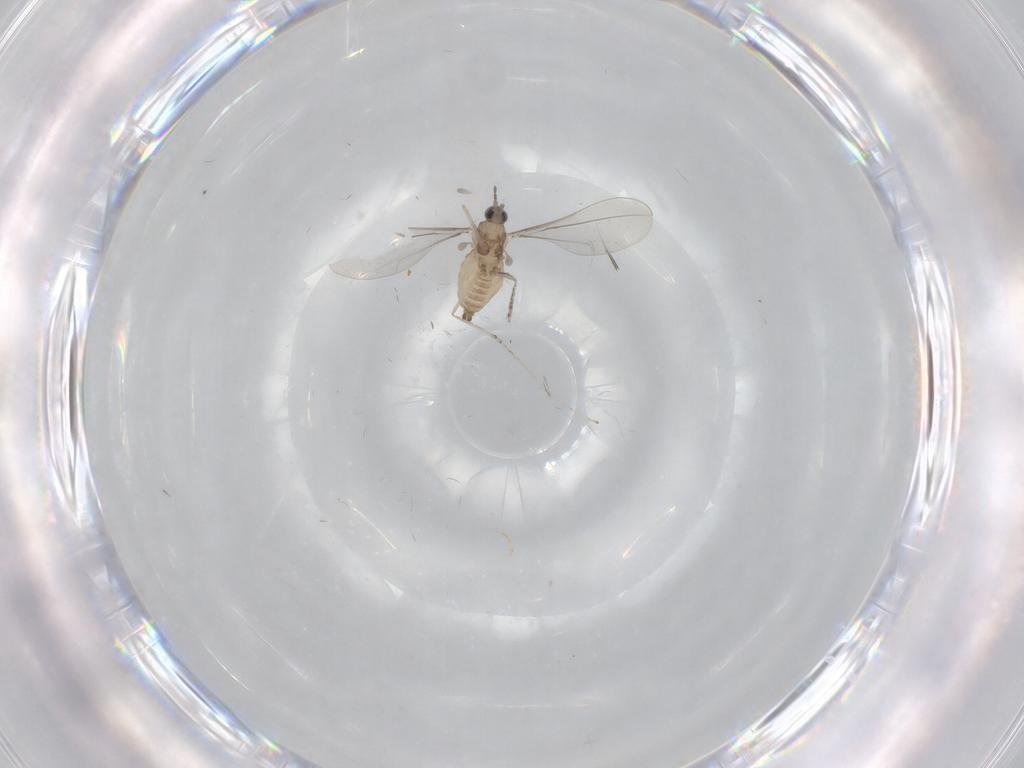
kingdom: Animalia
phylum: Arthropoda
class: Insecta
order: Diptera
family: Cecidomyiidae
